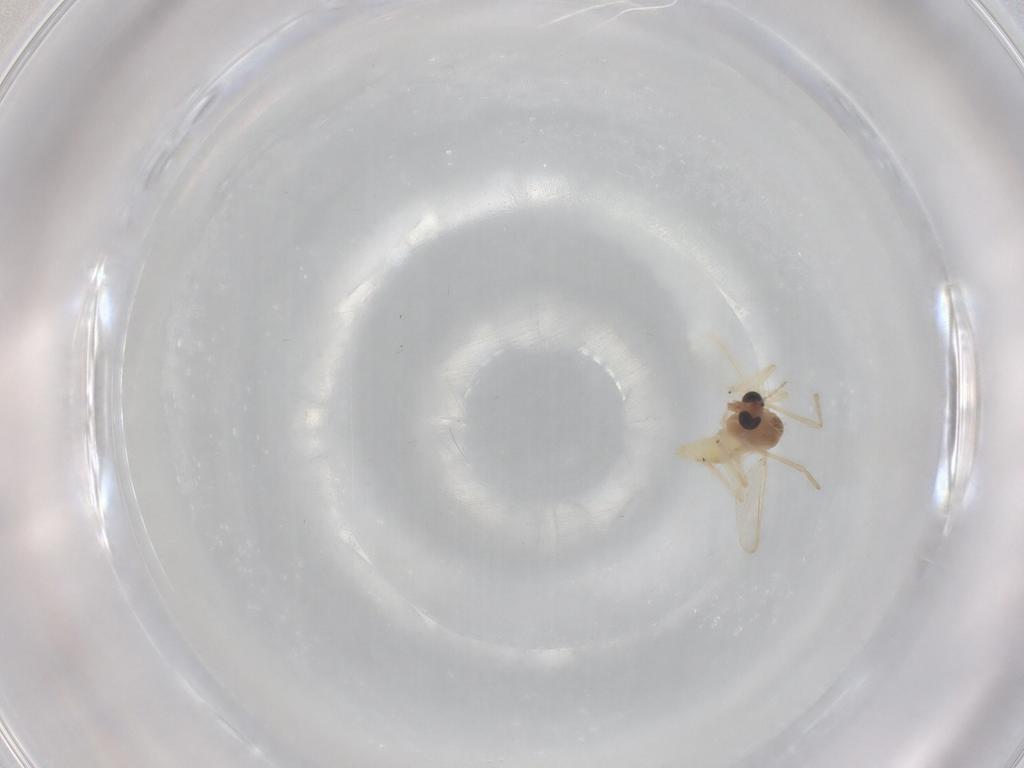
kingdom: Animalia
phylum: Arthropoda
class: Insecta
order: Diptera
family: Chironomidae
